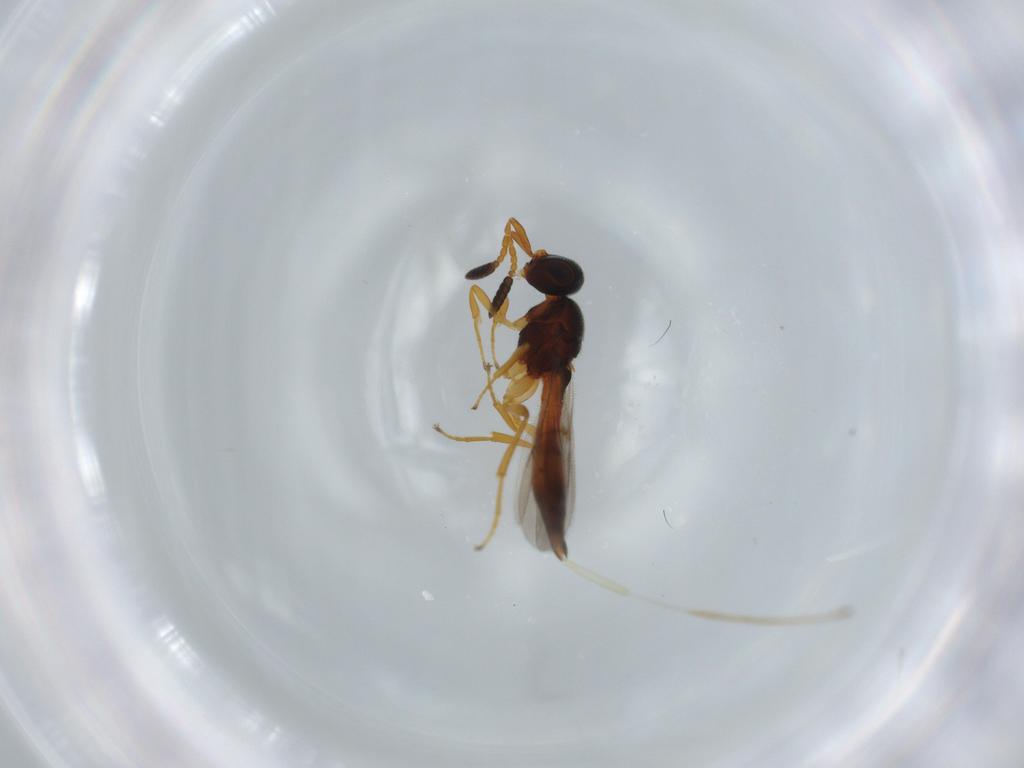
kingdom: Animalia
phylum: Arthropoda
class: Insecta
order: Hymenoptera
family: Scelionidae
